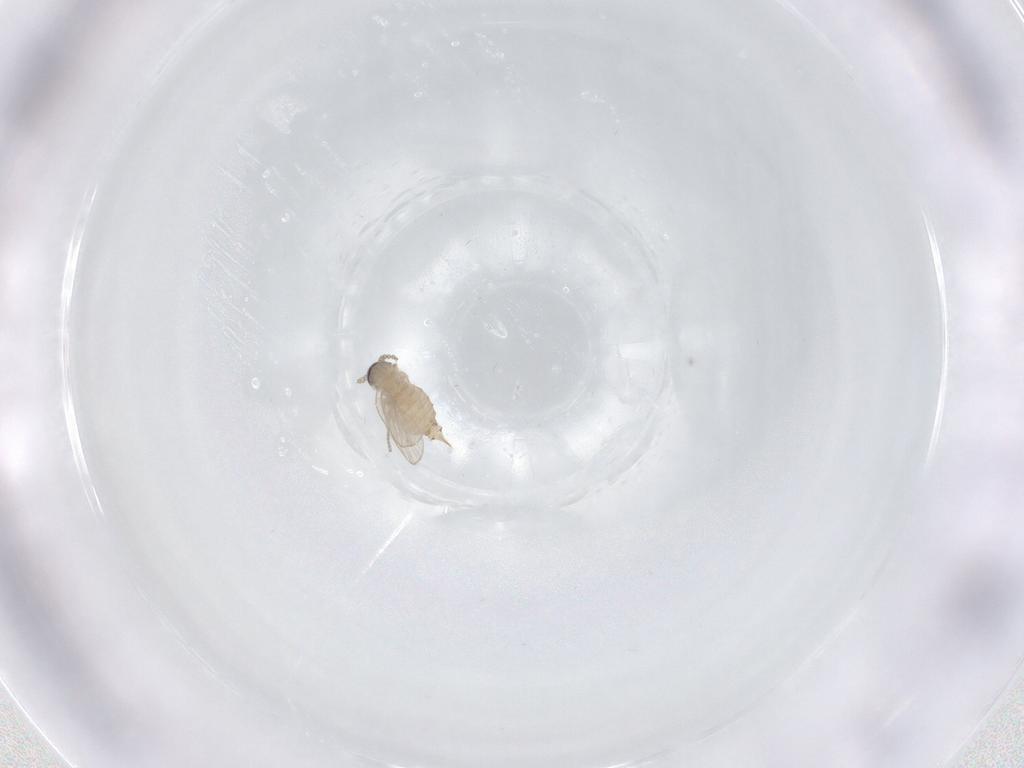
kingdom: Animalia
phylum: Arthropoda
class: Insecta
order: Diptera
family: Psychodidae
